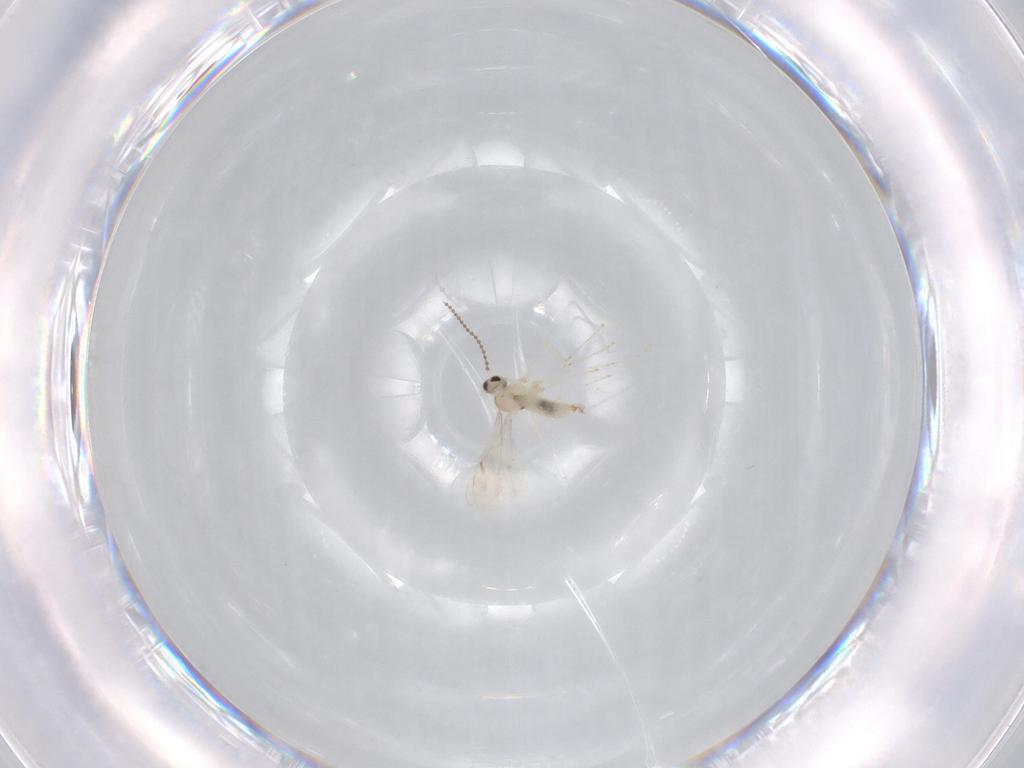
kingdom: Animalia
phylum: Arthropoda
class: Insecta
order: Diptera
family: Cecidomyiidae
